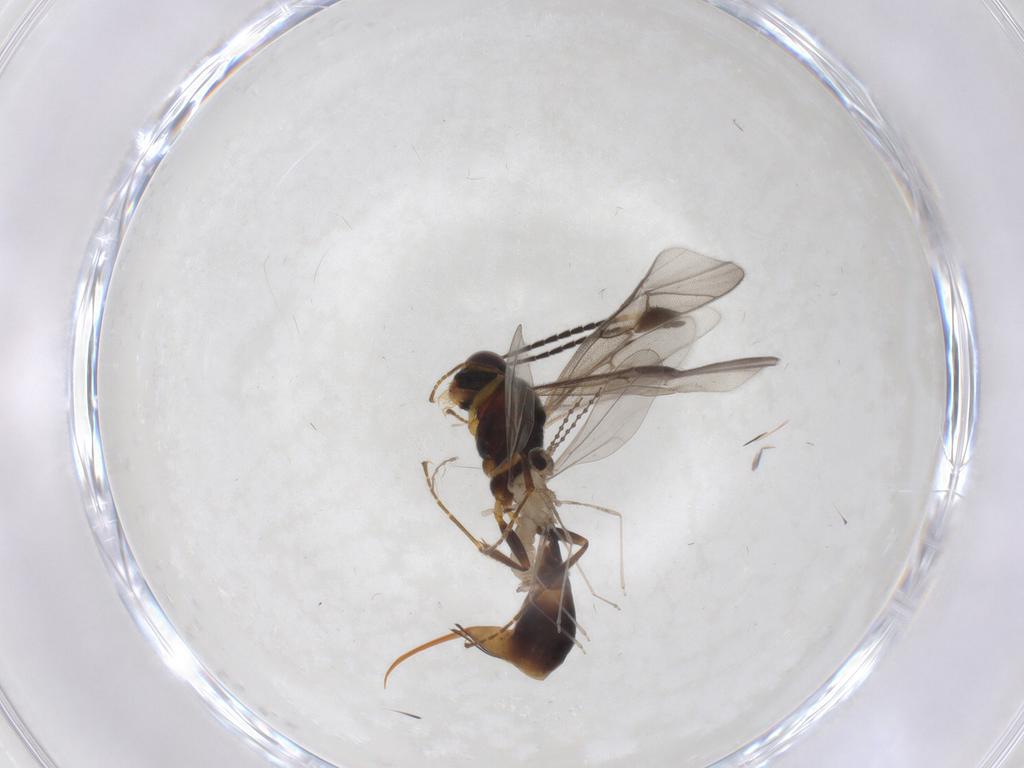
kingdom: Animalia
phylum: Arthropoda
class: Insecta
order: Diptera
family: Cecidomyiidae
